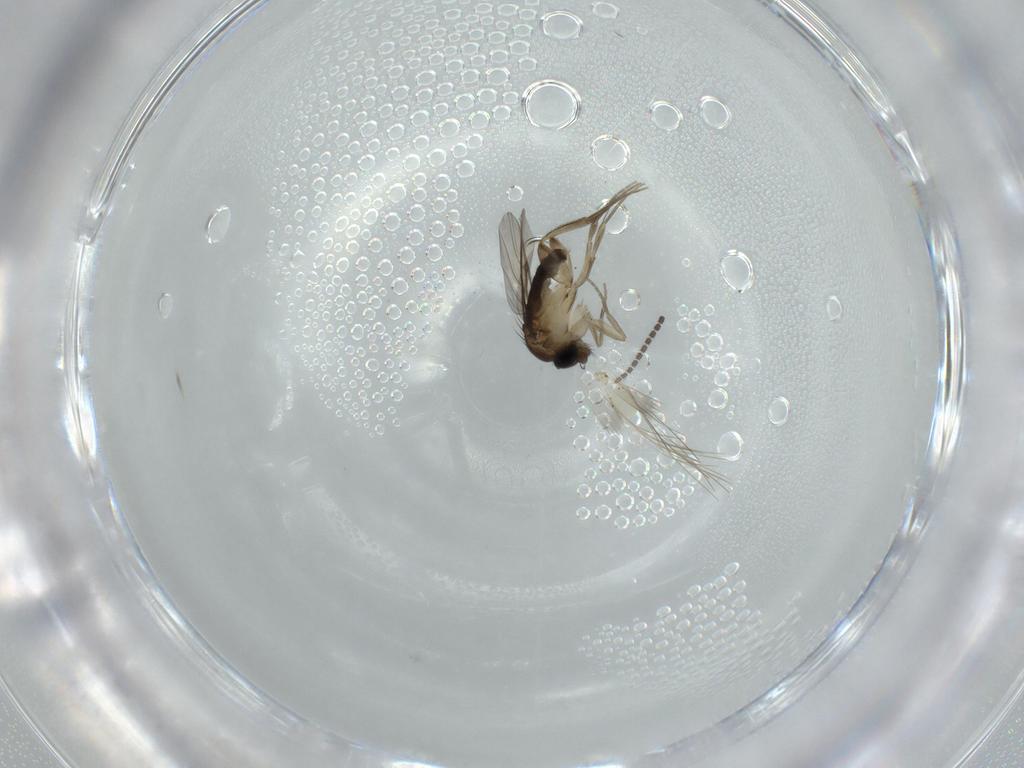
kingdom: Animalia
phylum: Arthropoda
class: Insecta
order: Diptera
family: Phoridae
